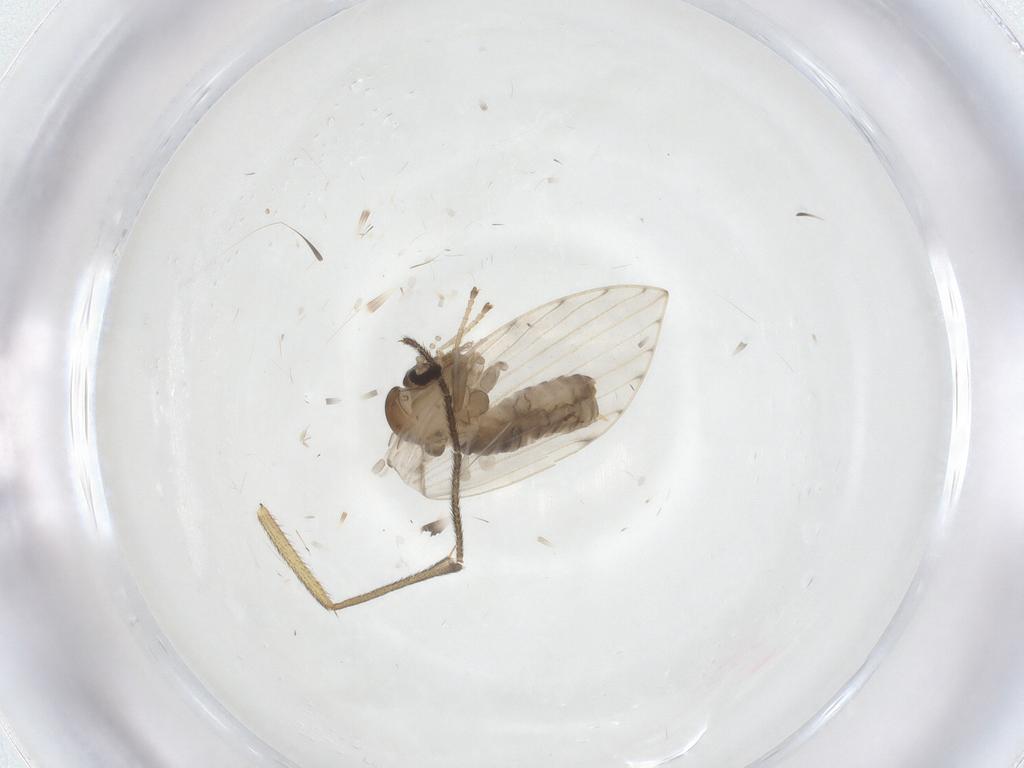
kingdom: Animalia
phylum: Arthropoda
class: Insecta
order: Diptera
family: Psychodidae
